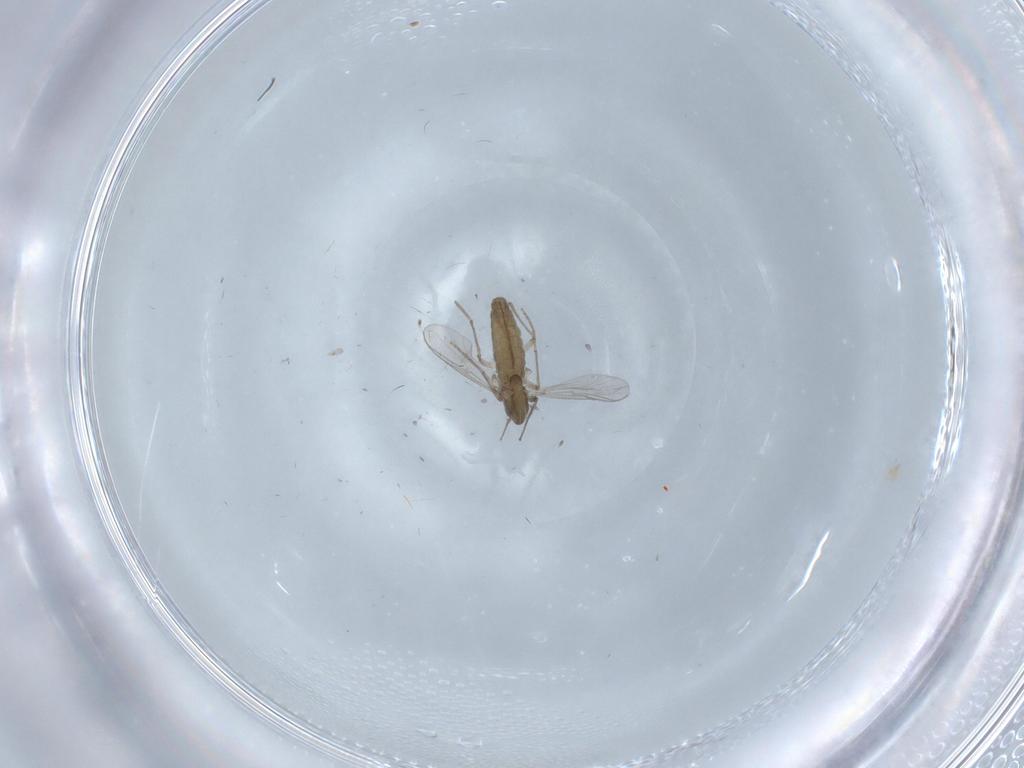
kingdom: Animalia
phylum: Arthropoda
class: Insecta
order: Diptera
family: Chironomidae
